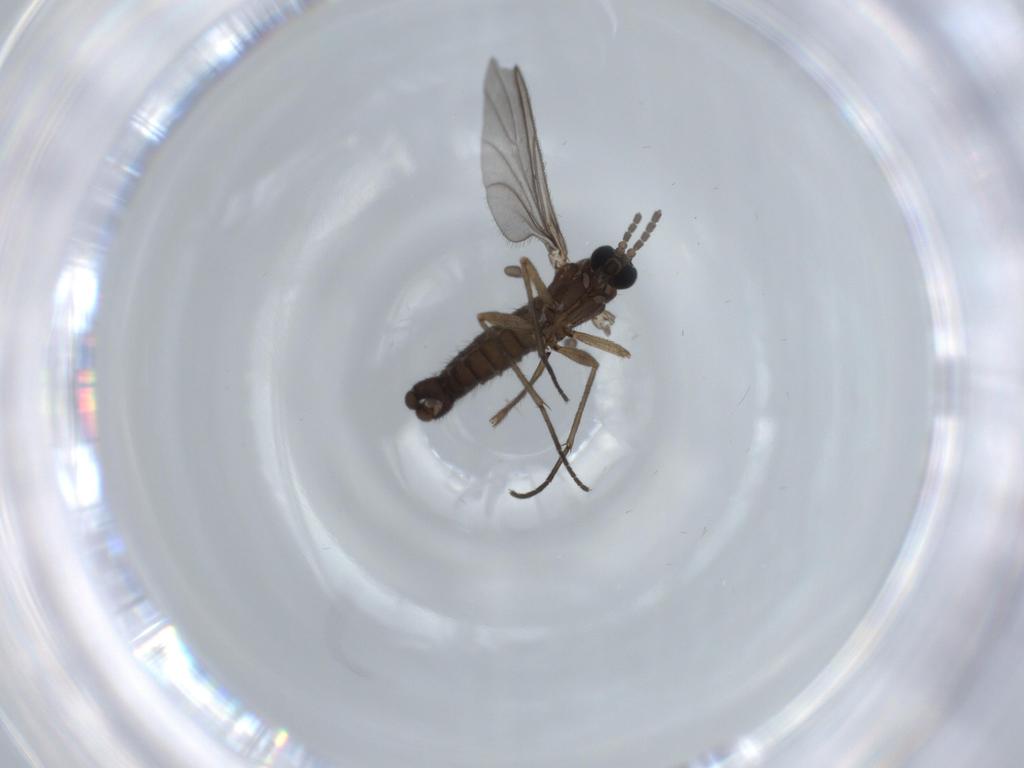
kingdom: Animalia
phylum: Arthropoda
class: Insecta
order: Diptera
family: Sciaridae
